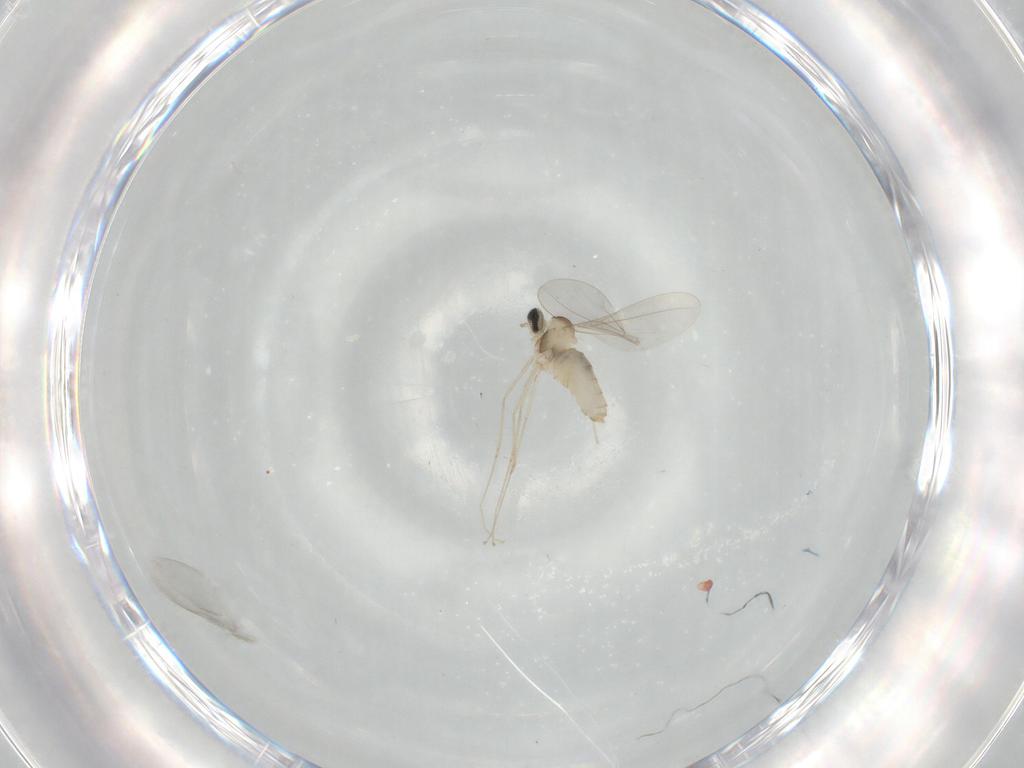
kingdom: Animalia
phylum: Arthropoda
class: Insecta
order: Diptera
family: Cecidomyiidae
